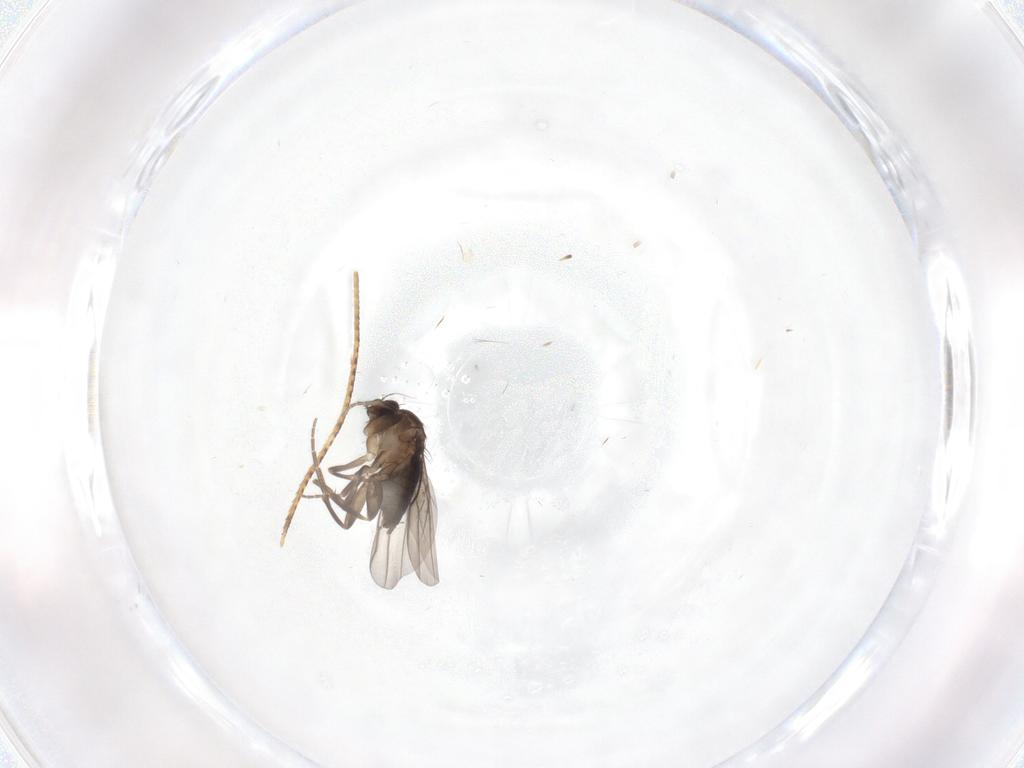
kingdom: Animalia
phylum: Arthropoda
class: Insecta
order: Diptera
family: Phoridae
